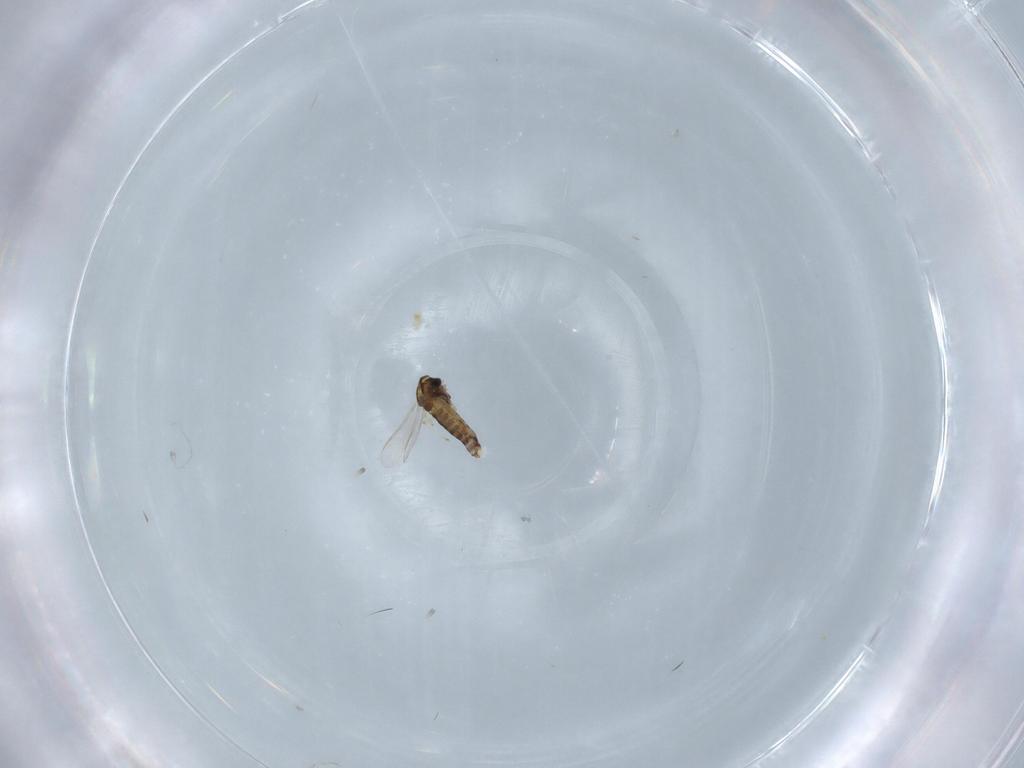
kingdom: Animalia
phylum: Arthropoda
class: Insecta
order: Diptera
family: Chironomidae
